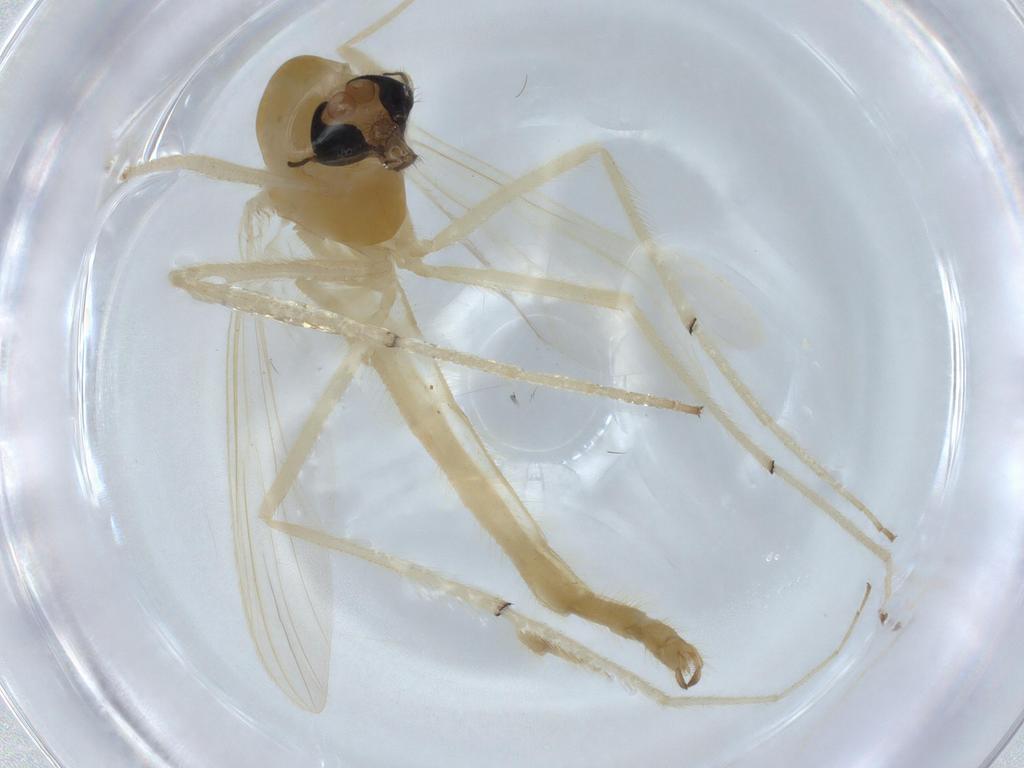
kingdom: Animalia
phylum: Arthropoda
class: Insecta
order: Diptera
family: Chironomidae
